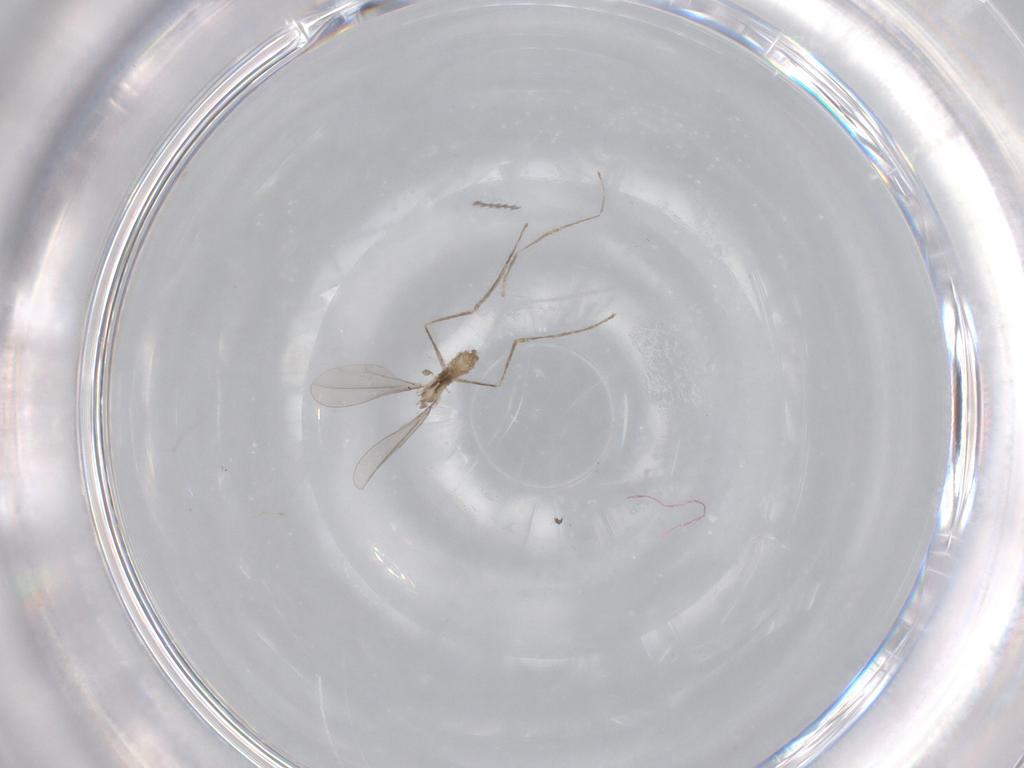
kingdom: Animalia
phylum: Arthropoda
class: Insecta
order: Diptera
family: Cecidomyiidae
